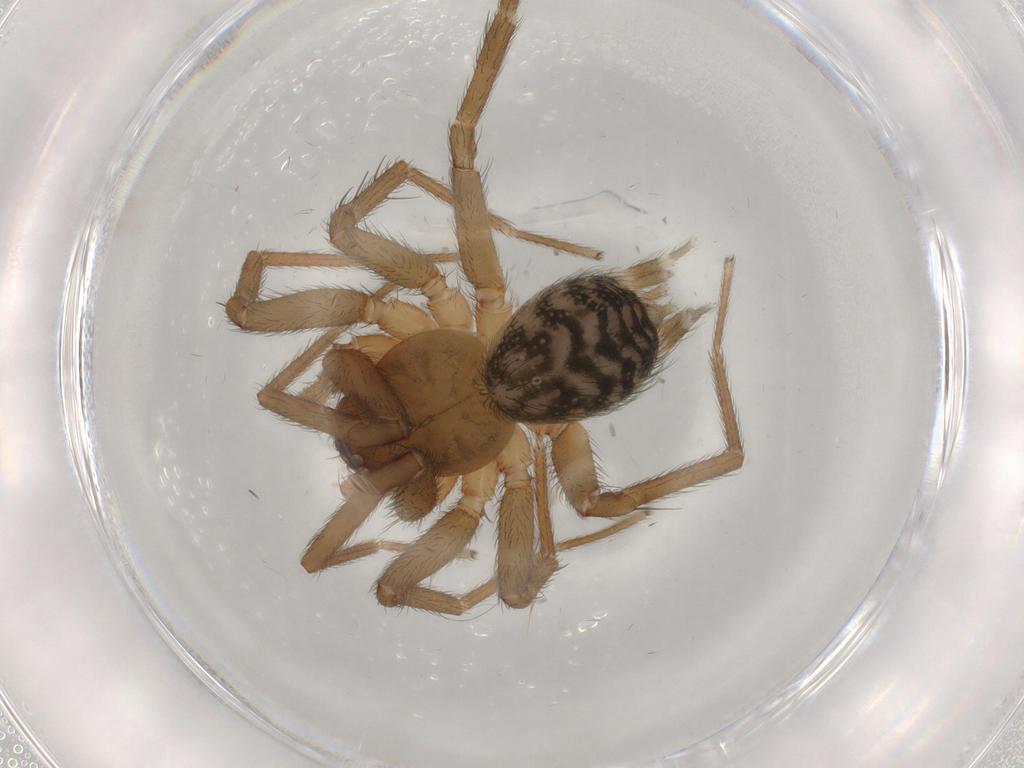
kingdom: Animalia
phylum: Arthropoda
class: Arachnida
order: Araneae
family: Hahniidae
